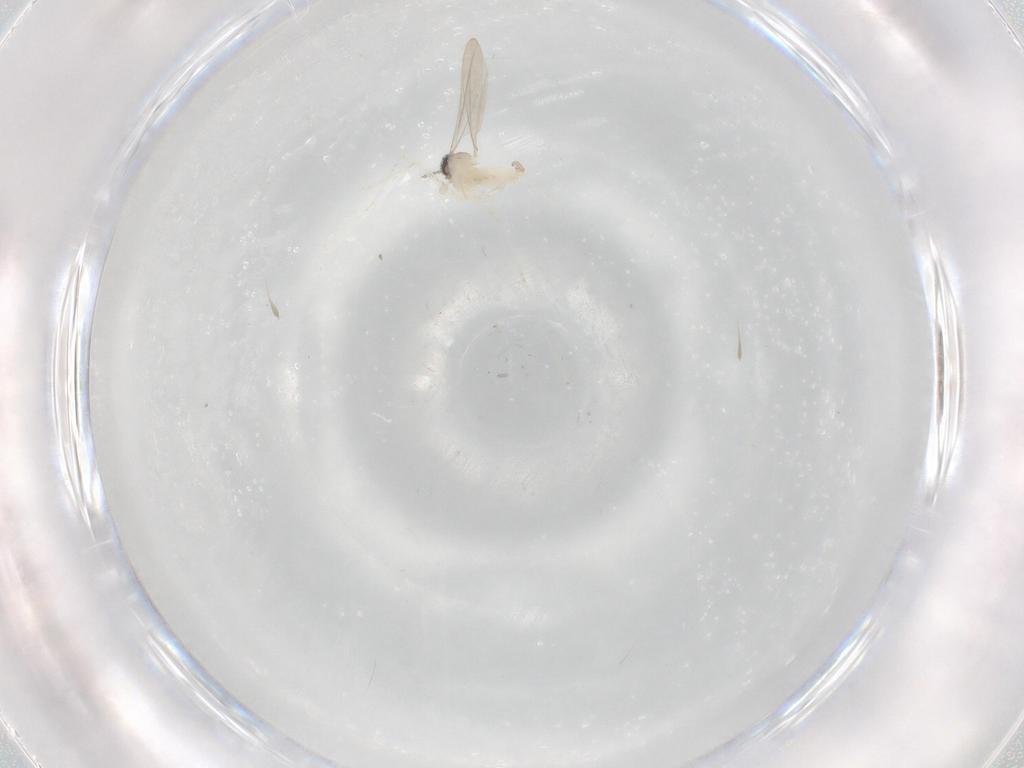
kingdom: Animalia
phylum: Arthropoda
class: Insecta
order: Diptera
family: Cecidomyiidae
